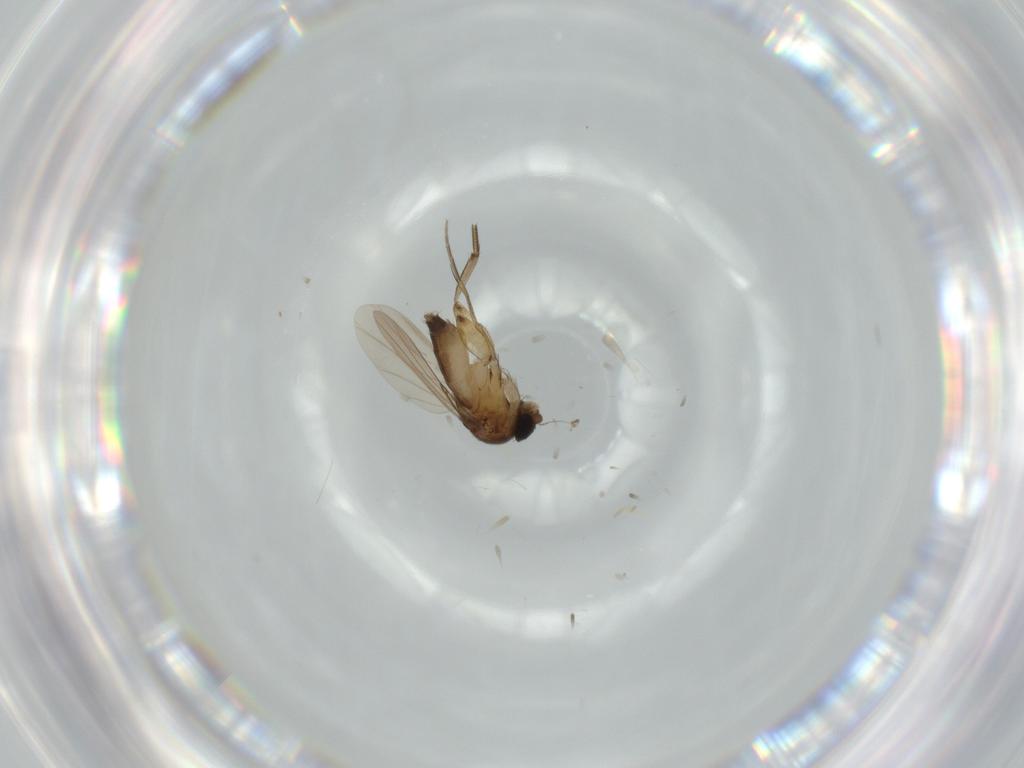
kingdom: Animalia
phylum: Arthropoda
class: Insecta
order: Diptera
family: Phoridae
